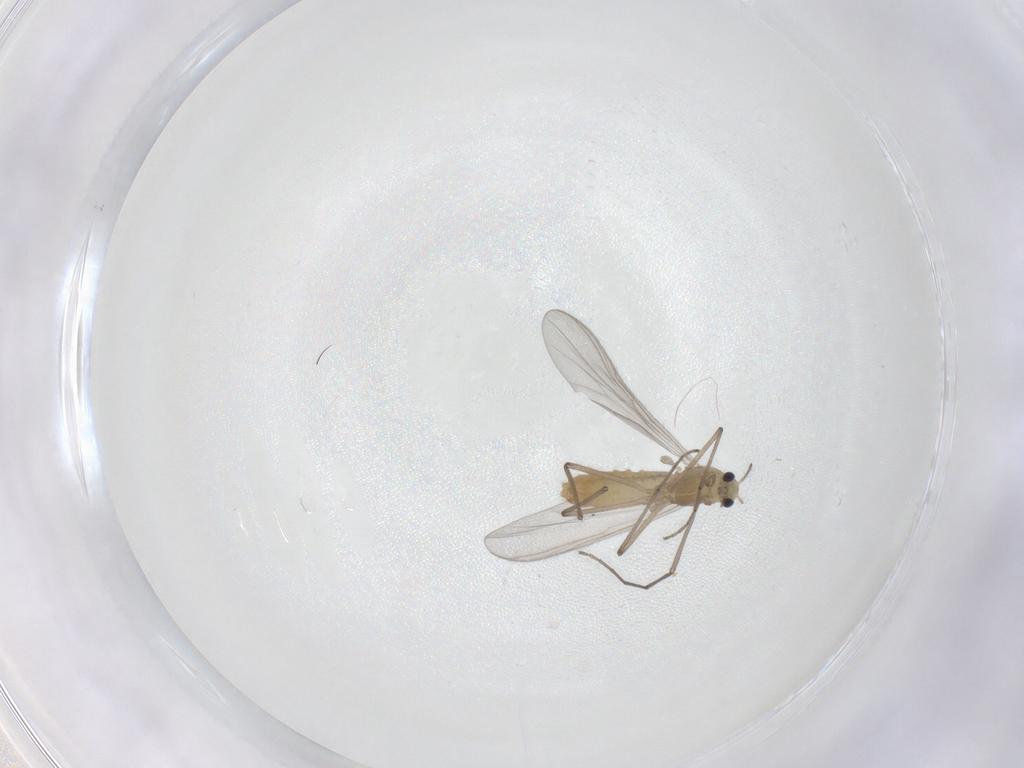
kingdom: Animalia
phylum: Arthropoda
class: Insecta
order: Diptera
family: Chironomidae
